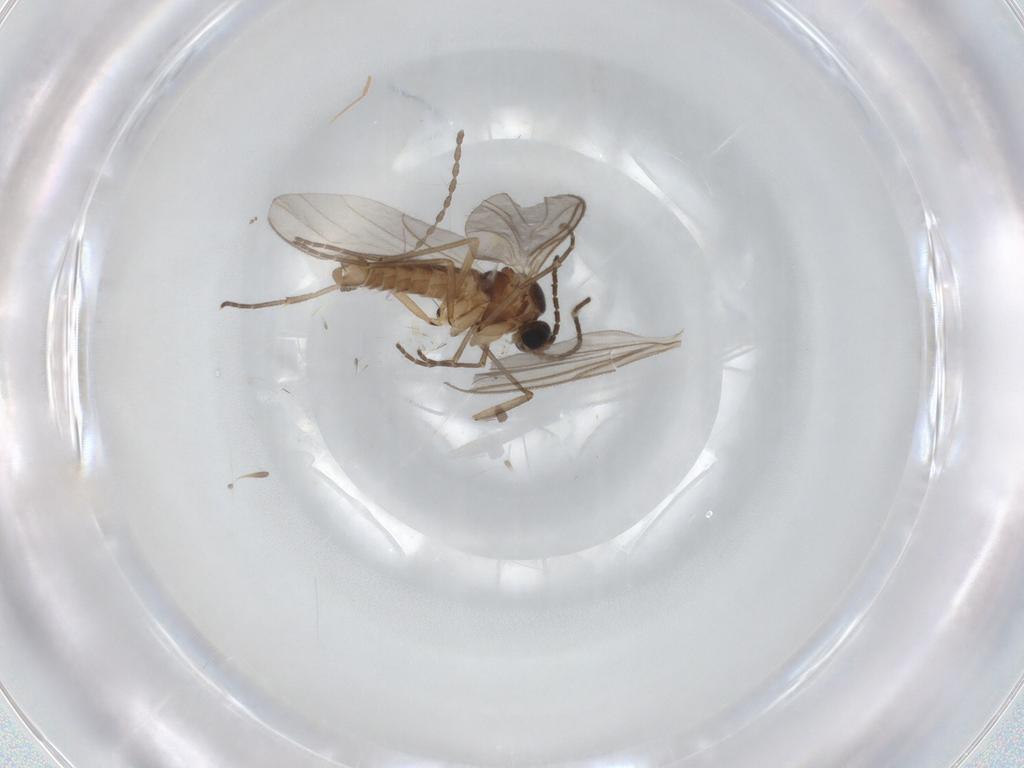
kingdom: Animalia
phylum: Arthropoda
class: Insecta
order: Diptera
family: Sciaridae
